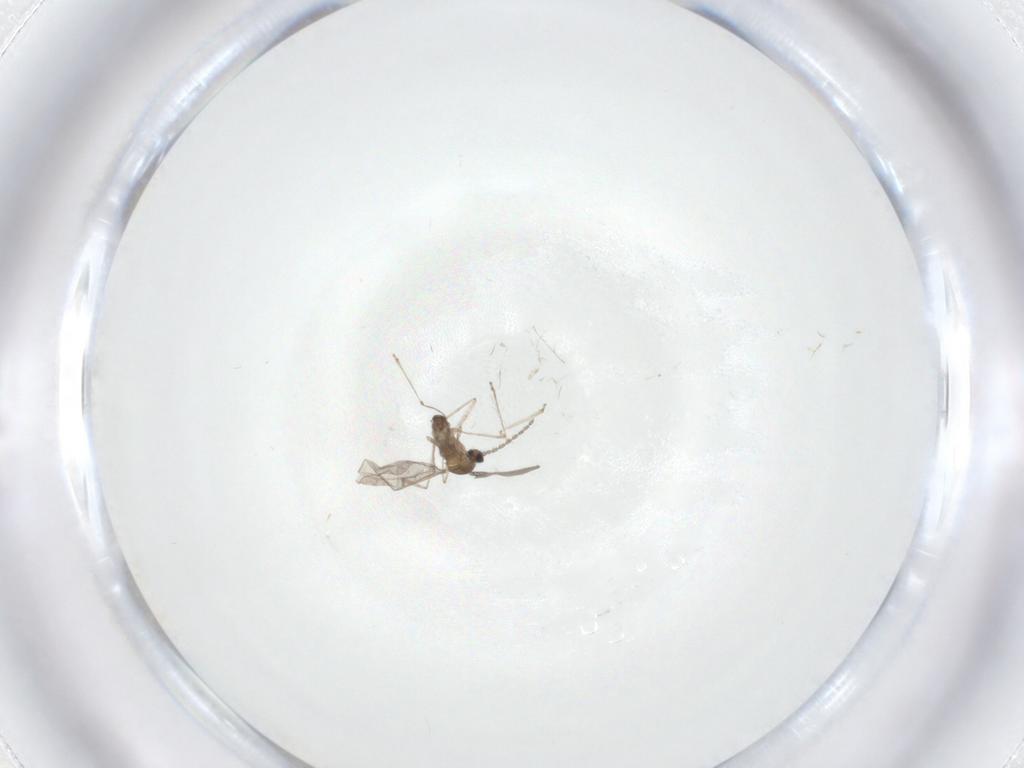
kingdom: Animalia
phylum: Arthropoda
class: Insecta
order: Diptera
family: Cecidomyiidae
